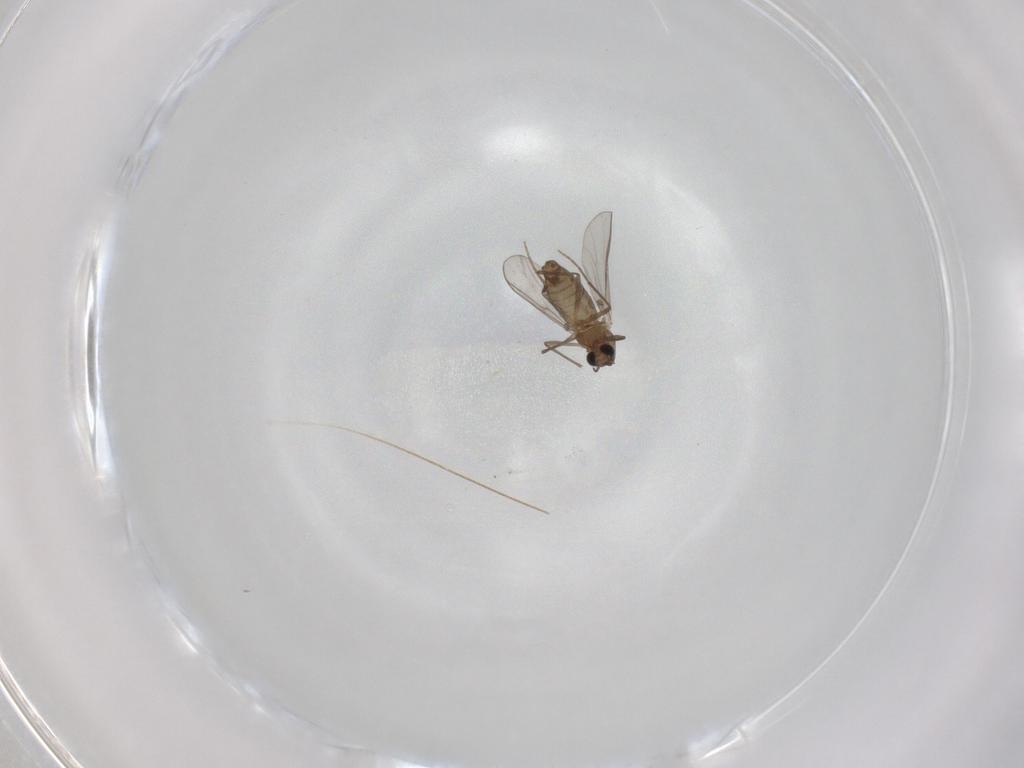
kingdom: Animalia
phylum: Arthropoda
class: Insecta
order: Diptera
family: Chironomidae
